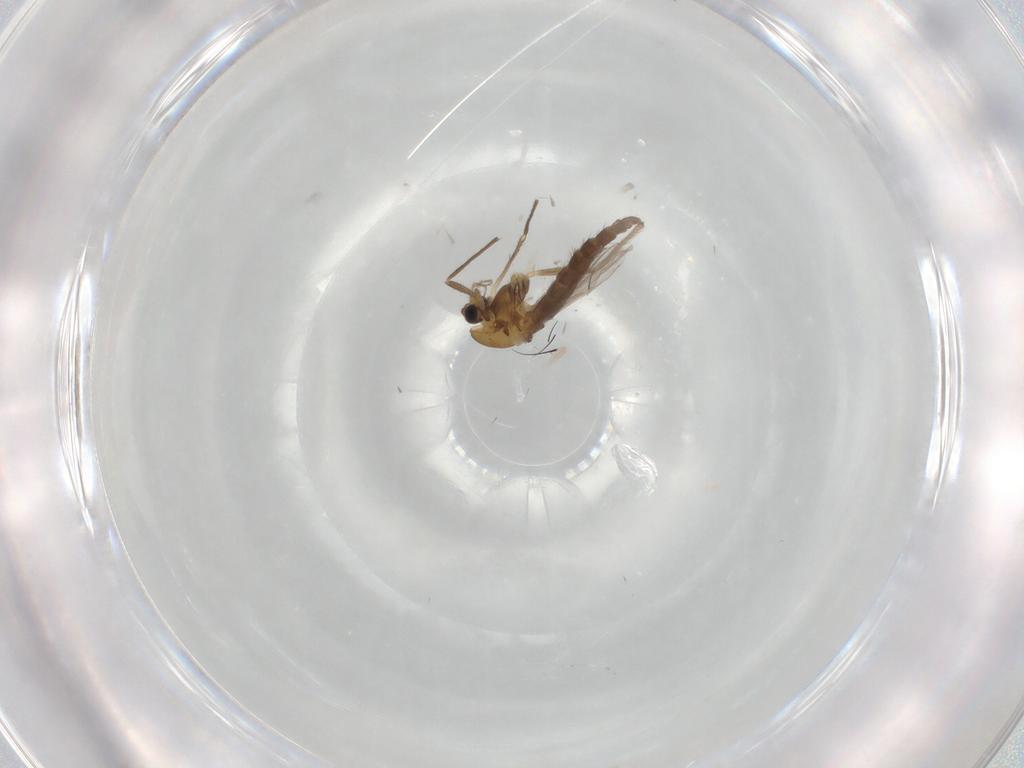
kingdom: Animalia
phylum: Arthropoda
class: Insecta
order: Diptera
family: Chironomidae
